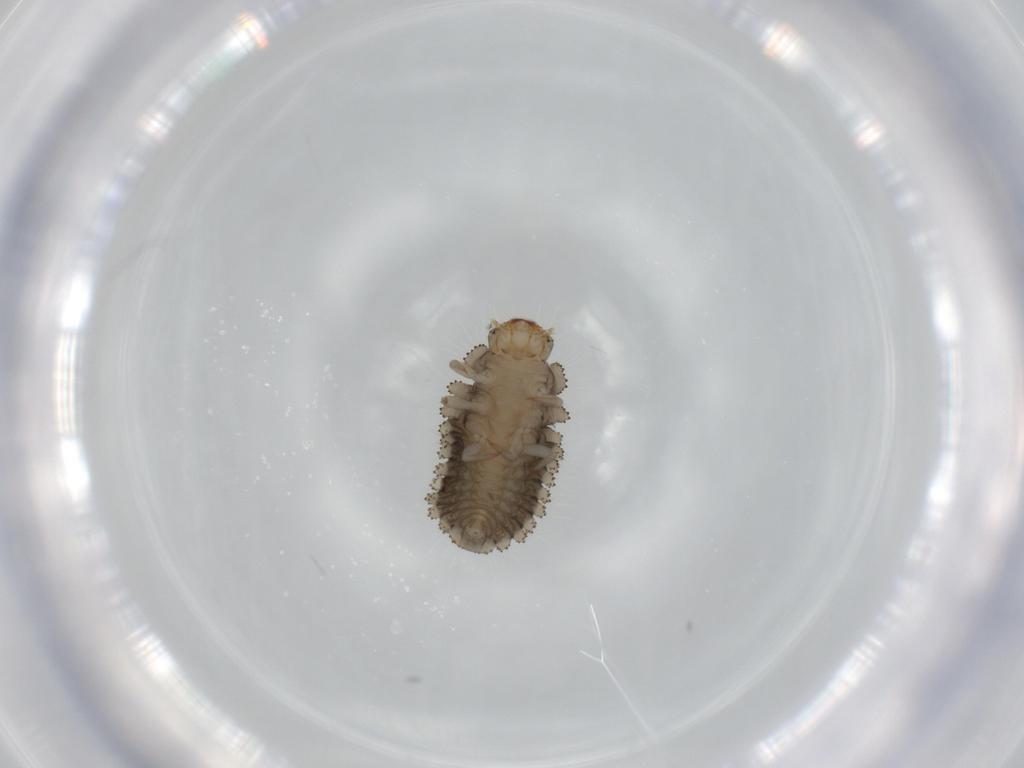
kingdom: Animalia
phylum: Arthropoda
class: Insecta
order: Coleoptera
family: Coccinellidae
